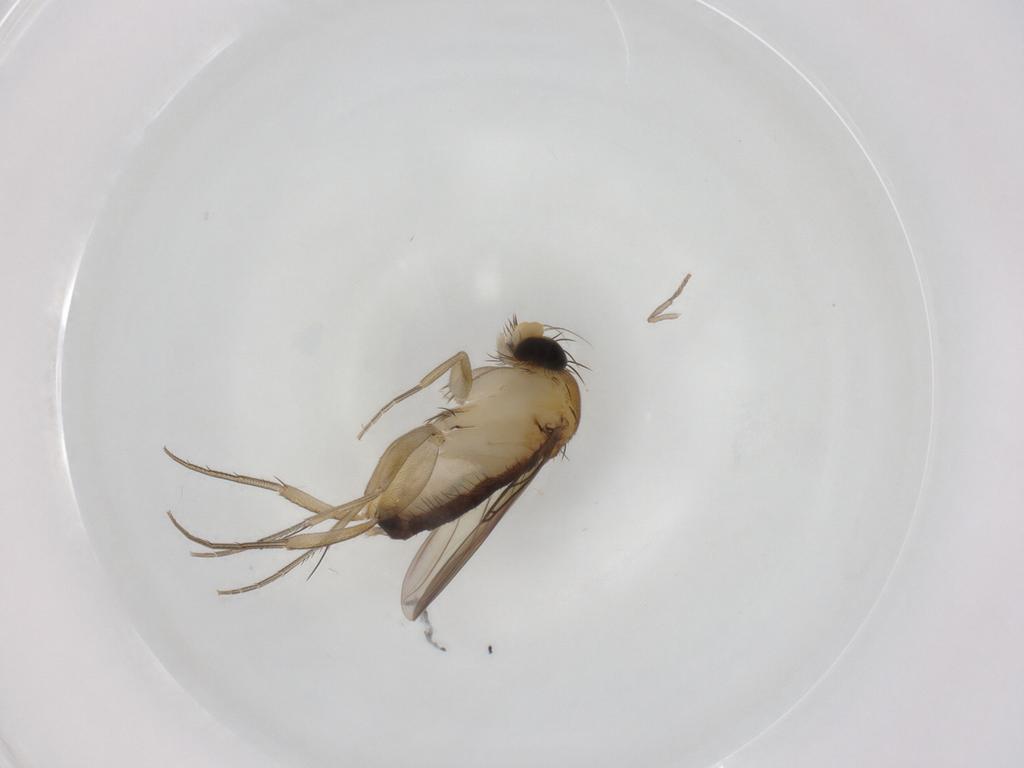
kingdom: Animalia
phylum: Arthropoda
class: Insecta
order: Diptera
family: Psychodidae
